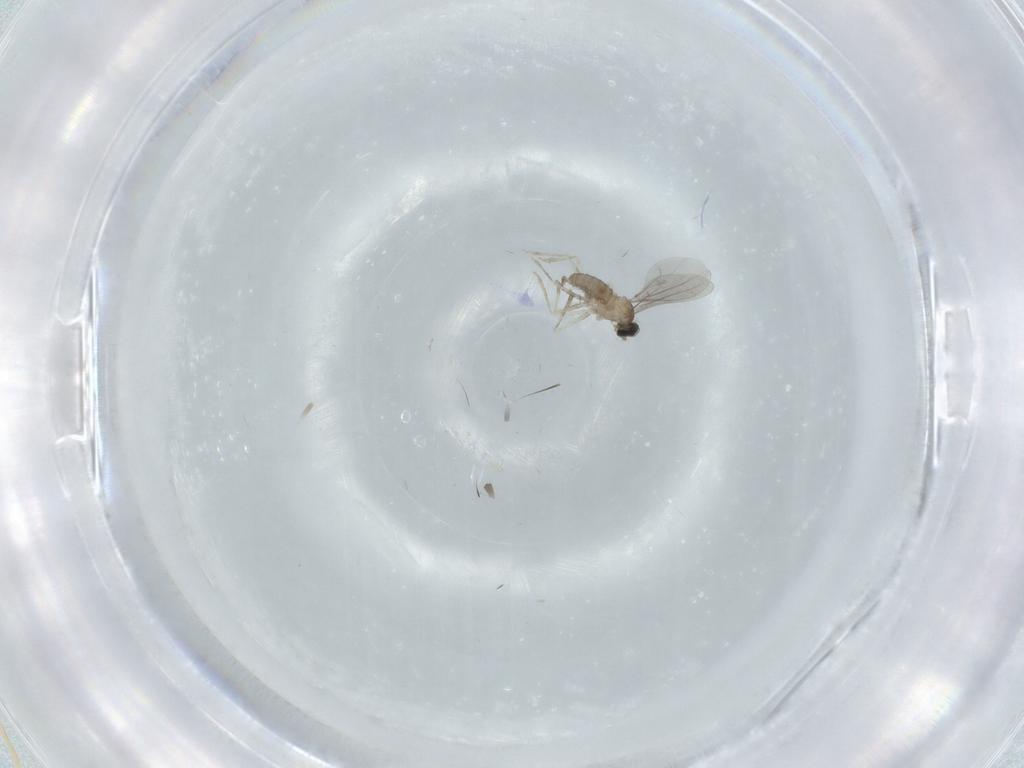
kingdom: Animalia
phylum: Arthropoda
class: Insecta
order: Diptera
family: Cecidomyiidae
